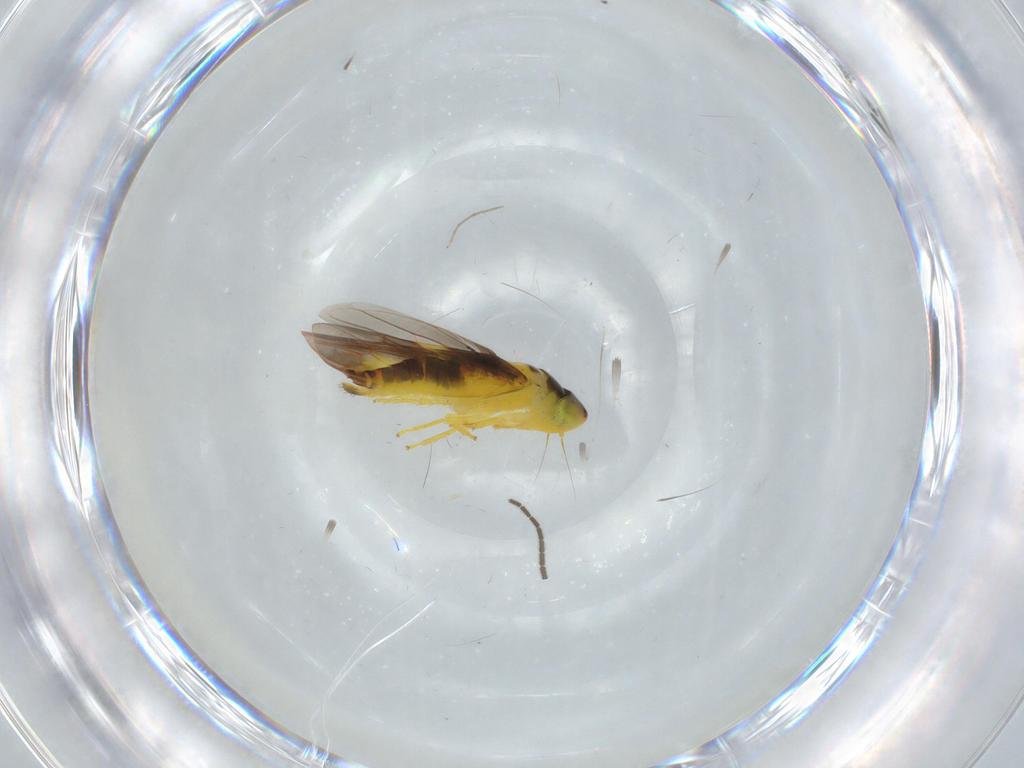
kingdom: Animalia
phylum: Arthropoda
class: Insecta
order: Hemiptera
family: Cicadellidae
